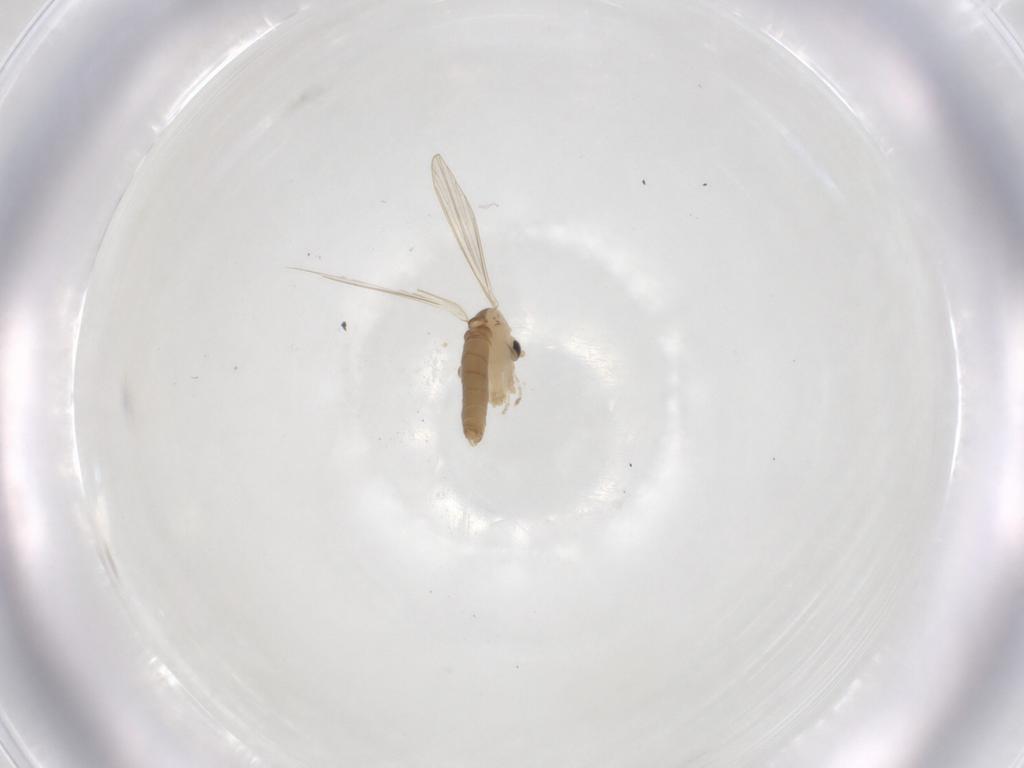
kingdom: Animalia
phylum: Arthropoda
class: Insecta
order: Diptera
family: Psychodidae
